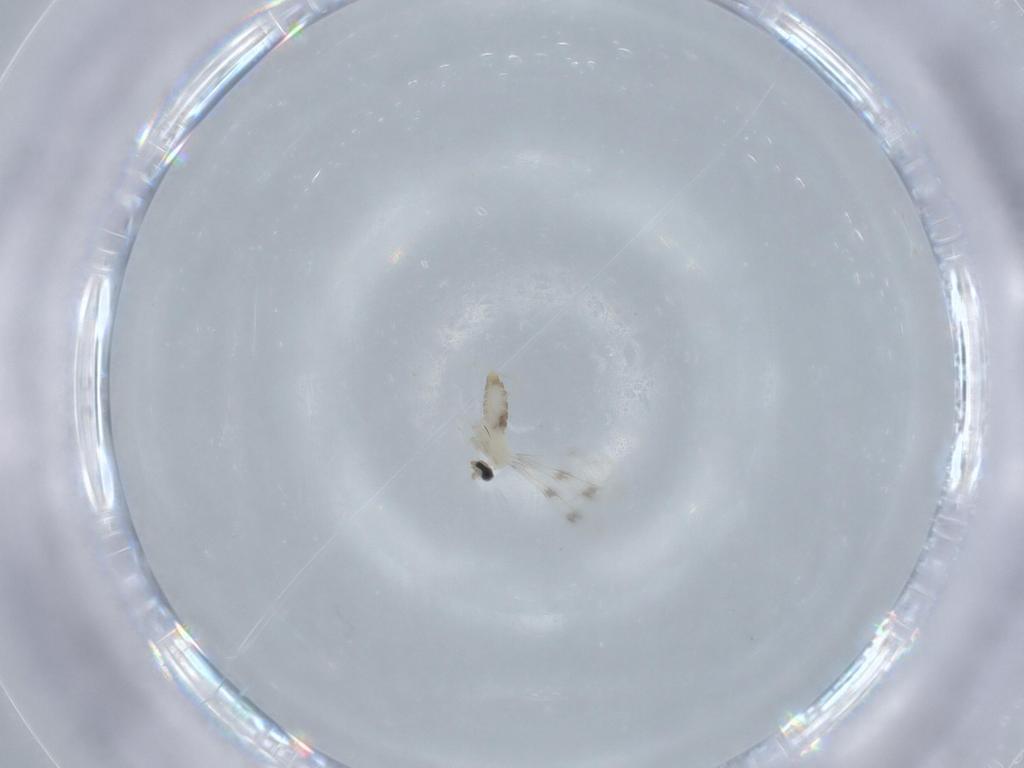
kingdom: Animalia
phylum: Arthropoda
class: Insecta
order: Diptera
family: Cecidomyiidae
